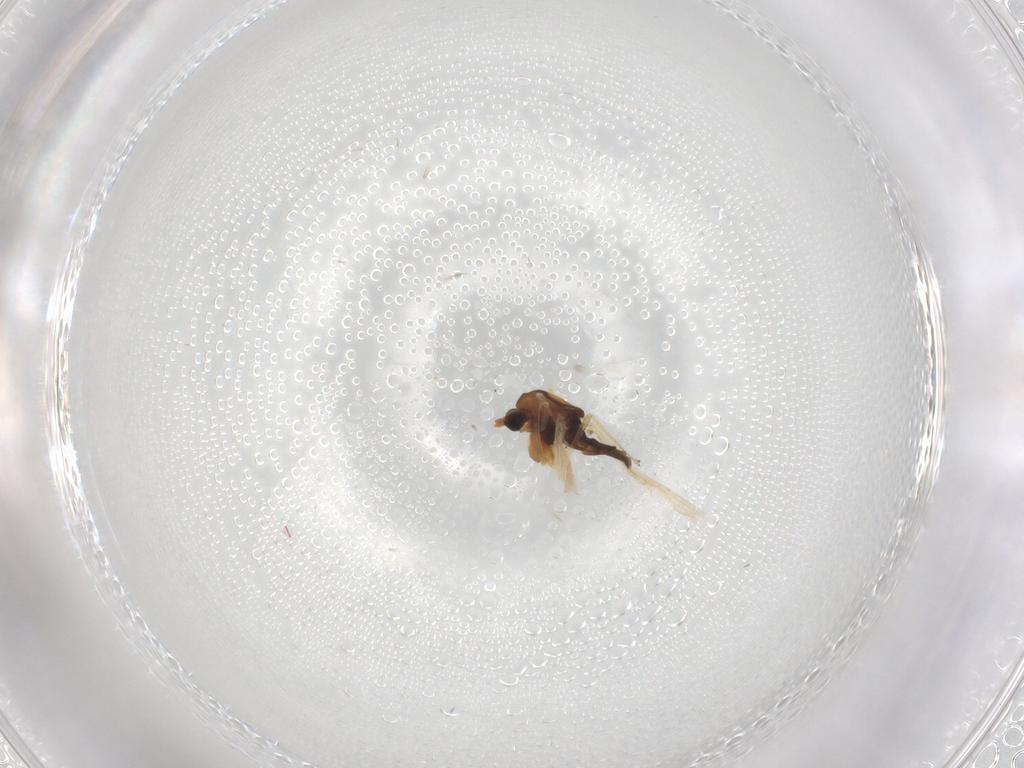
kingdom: Animalia
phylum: Arthropoda
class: Insecta
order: Diptera
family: Chironomidae
